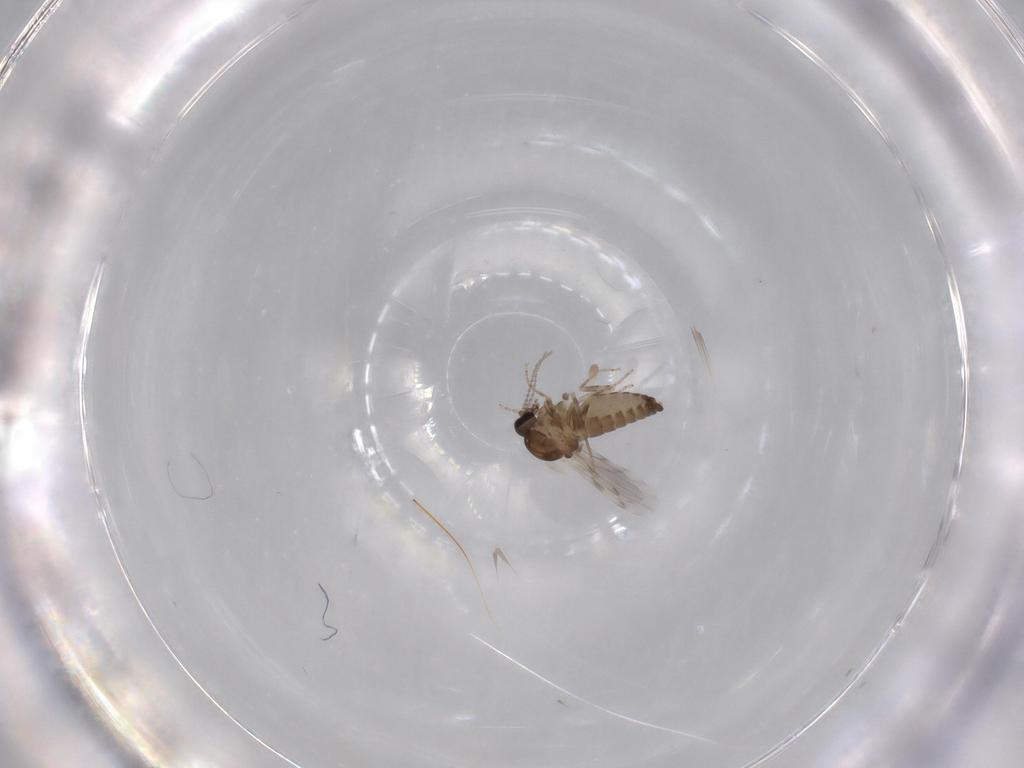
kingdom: Animalia
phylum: Arthropoda
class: Insecta
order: Diptera
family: Ceratopogonidae
